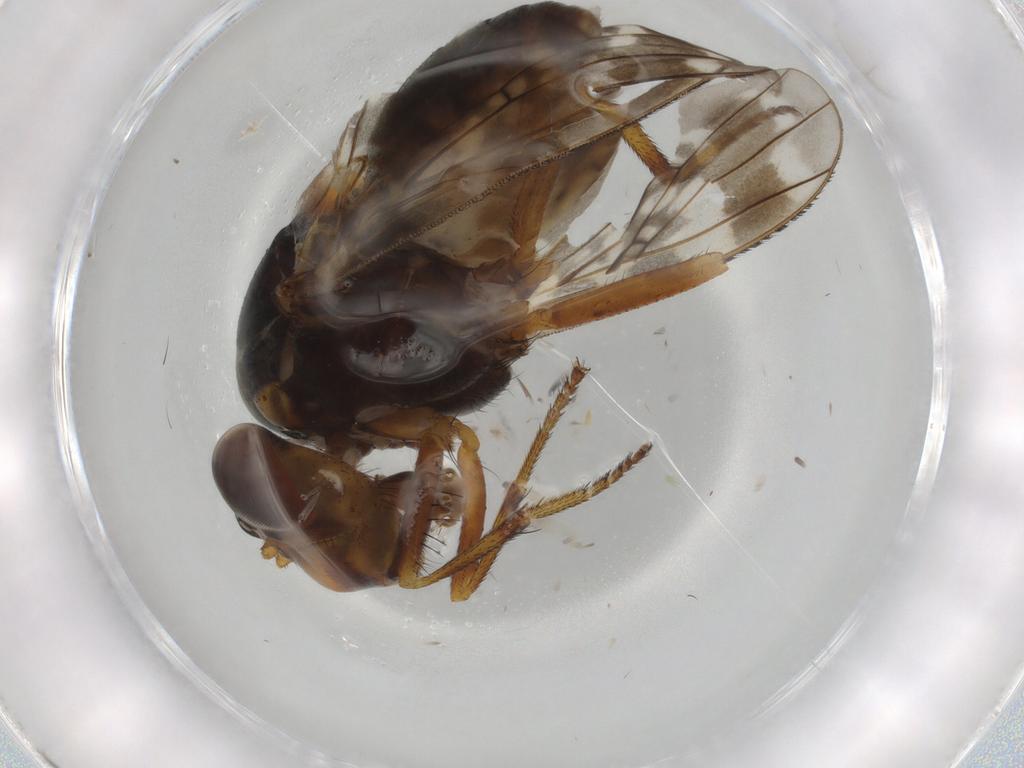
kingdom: Animalia
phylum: Arthropoda
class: Insecta
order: Diptera
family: Lauxaniidae
